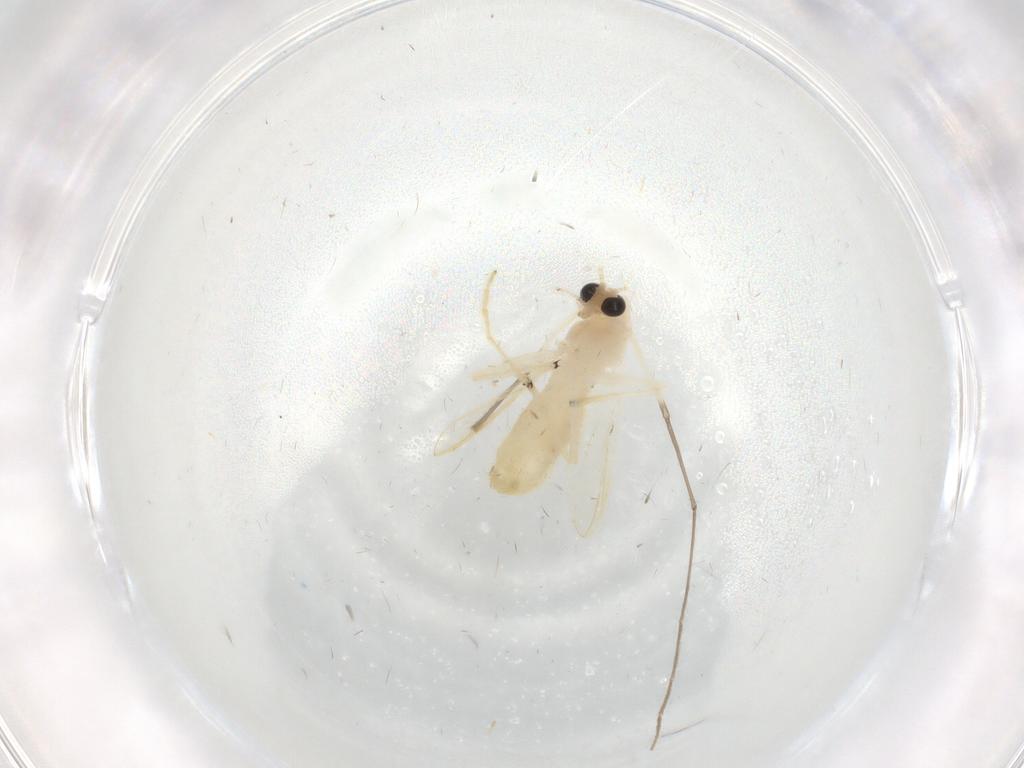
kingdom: Animalia
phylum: Arthropoda
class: Insecta
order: Diptera
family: Chironomidae
